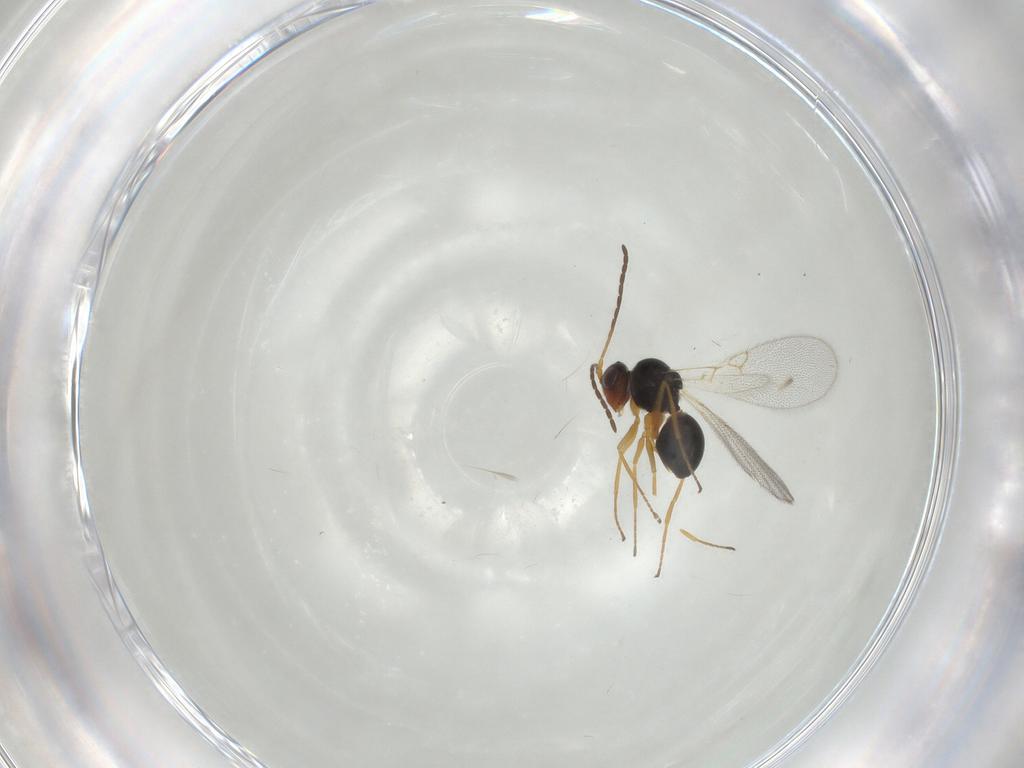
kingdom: Animalia
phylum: Arthropoda
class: Insecta
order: Hymenoptera
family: Figitidae
